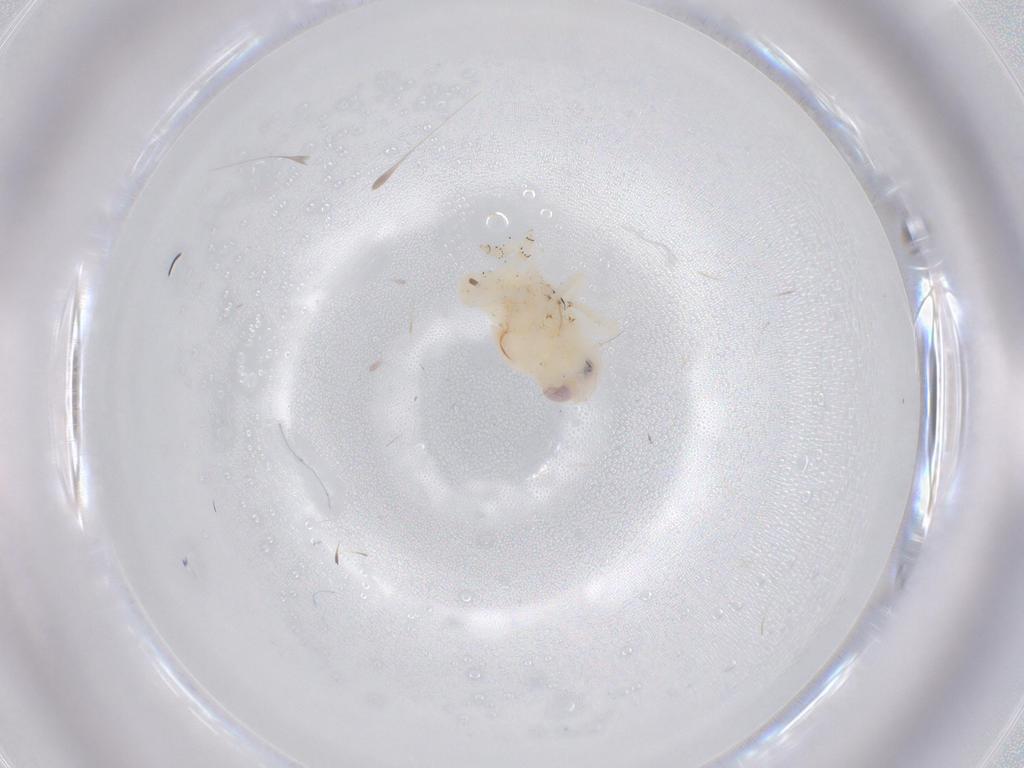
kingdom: Animalia
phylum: Arthropoda
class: Insecta
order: Hemiptera
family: Nogodinidae
